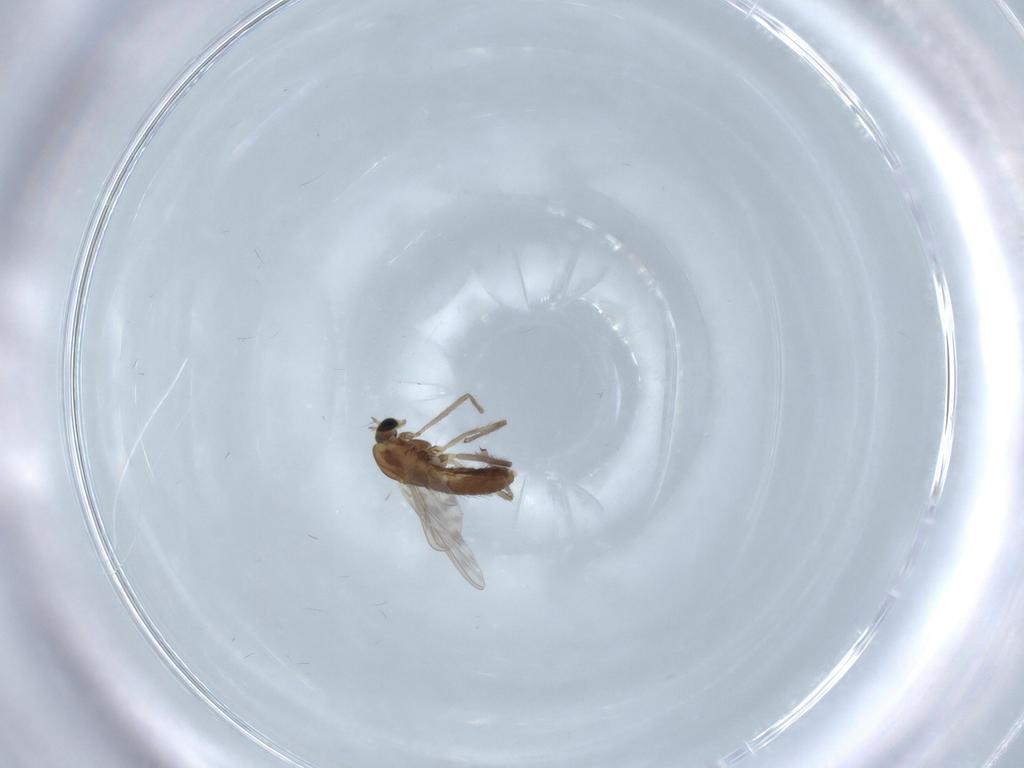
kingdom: Animalia
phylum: Arthropoda
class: Insecta
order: Diptera
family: Chironomidae
